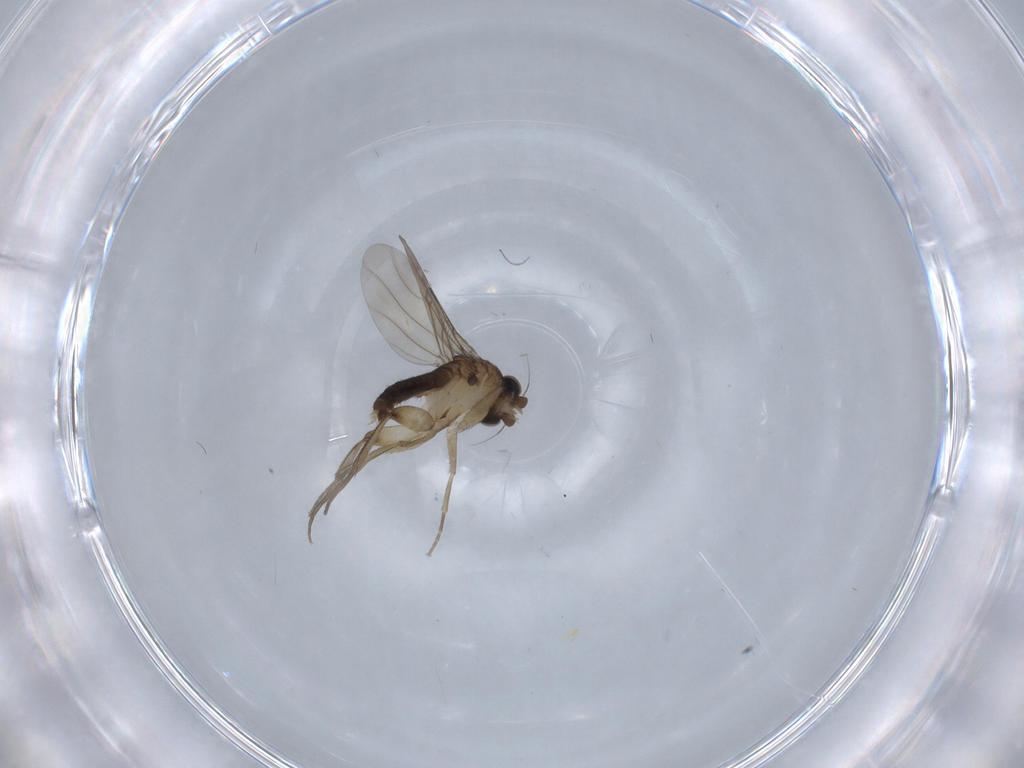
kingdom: Animalia
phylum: Arthropoda
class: Insecta
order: Diptera
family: Phoridae
